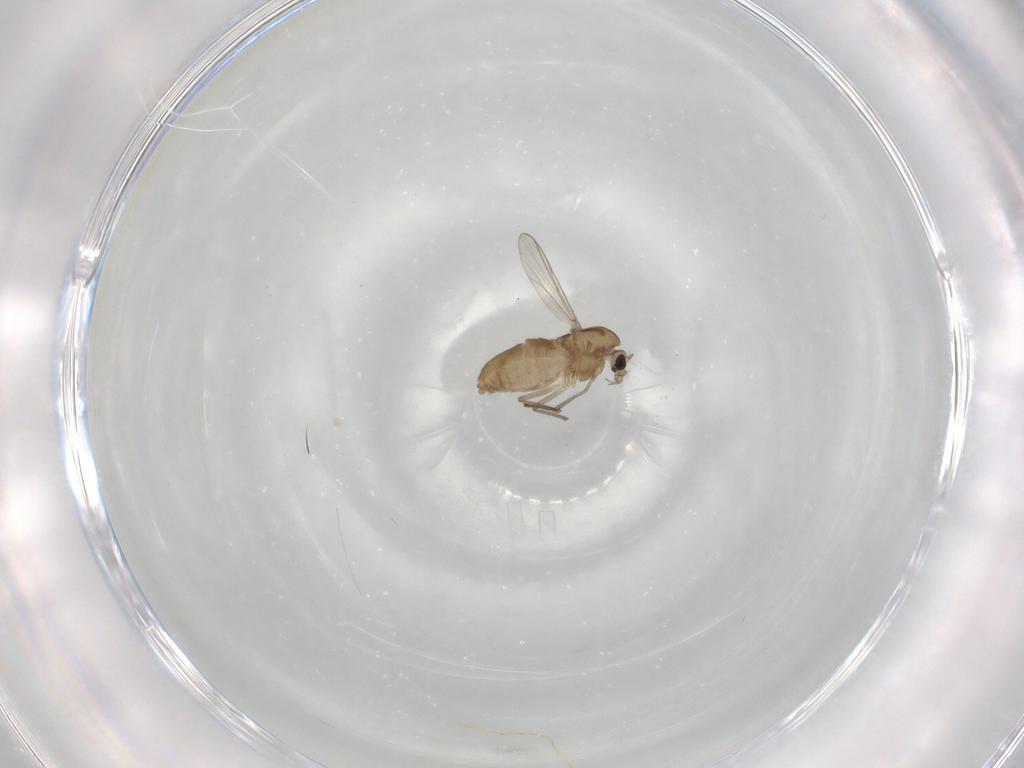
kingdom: Animalia
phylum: Arthropoda
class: Insecta
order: Diptera
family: Chironomidae
